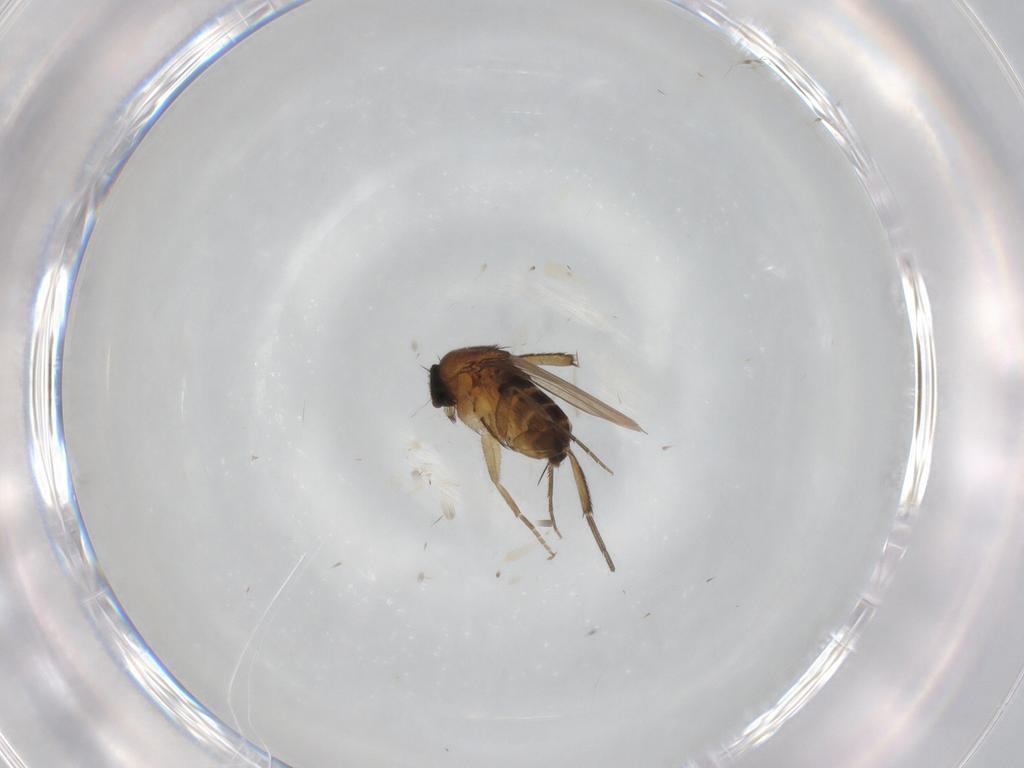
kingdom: Animalia
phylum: Arthropoda
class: Insecta
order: Diptera
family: Phoridae
